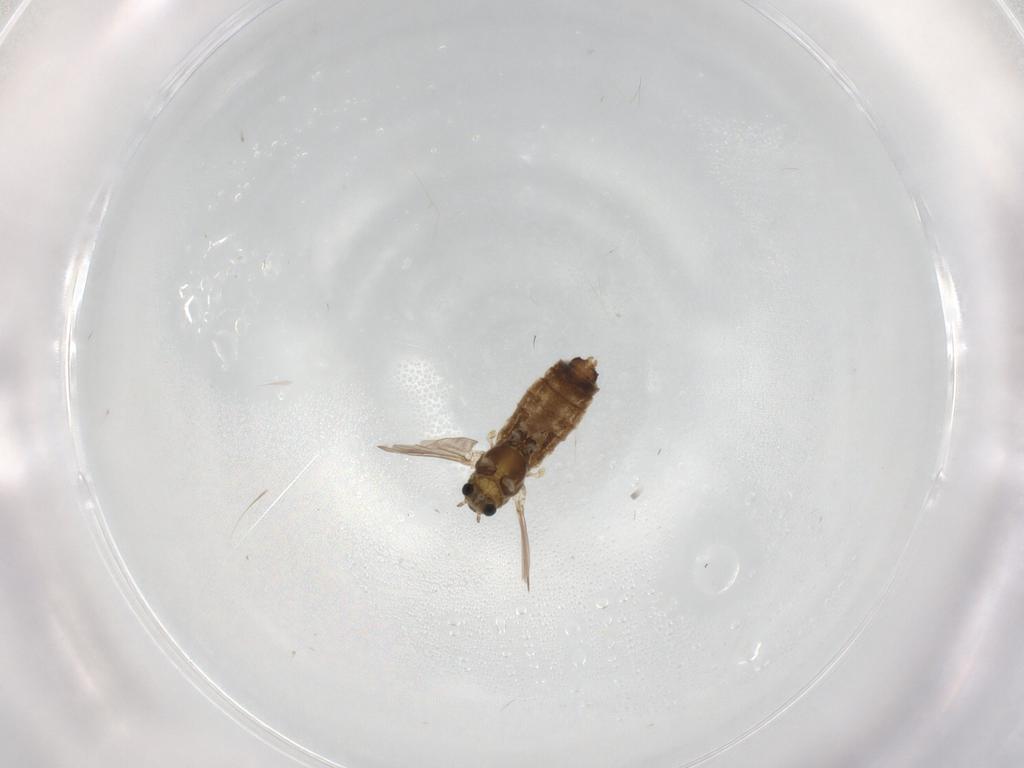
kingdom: Animalia
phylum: Arthropoda
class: Insecta
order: Diptera
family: Chironomidae
